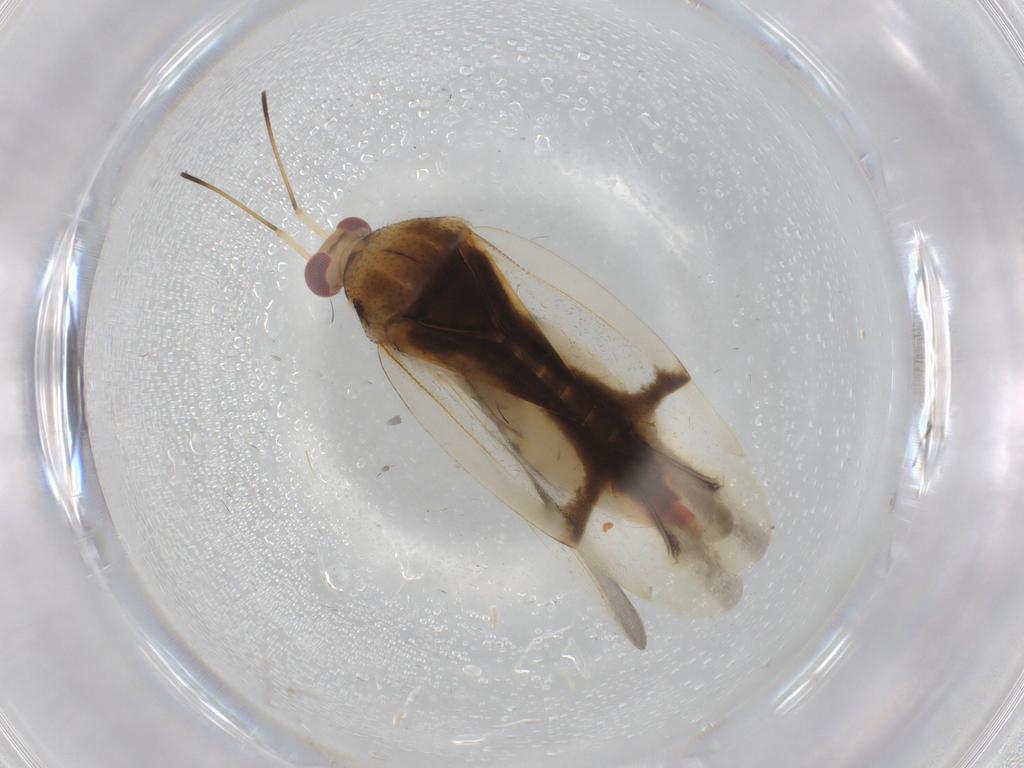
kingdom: Animalia
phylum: Arthropoda
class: Insecta
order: Hemiptera
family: Miridae
